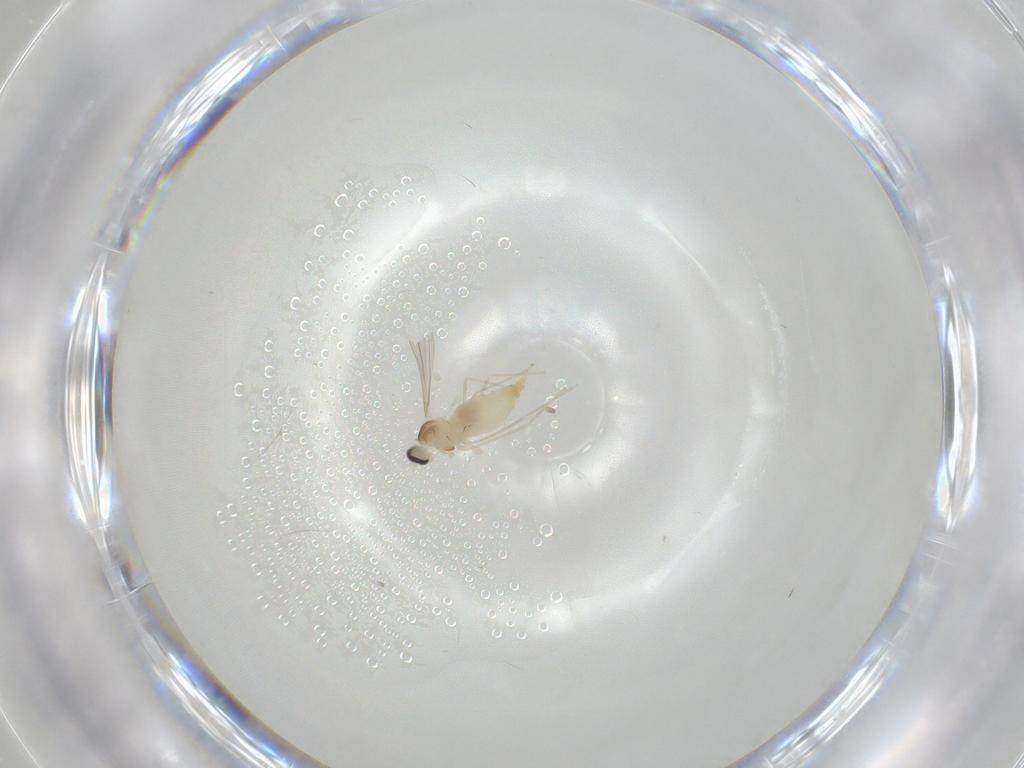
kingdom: Animalia
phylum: Arthropoda
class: Insecta
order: Diptera
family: Cecidomyiidae
